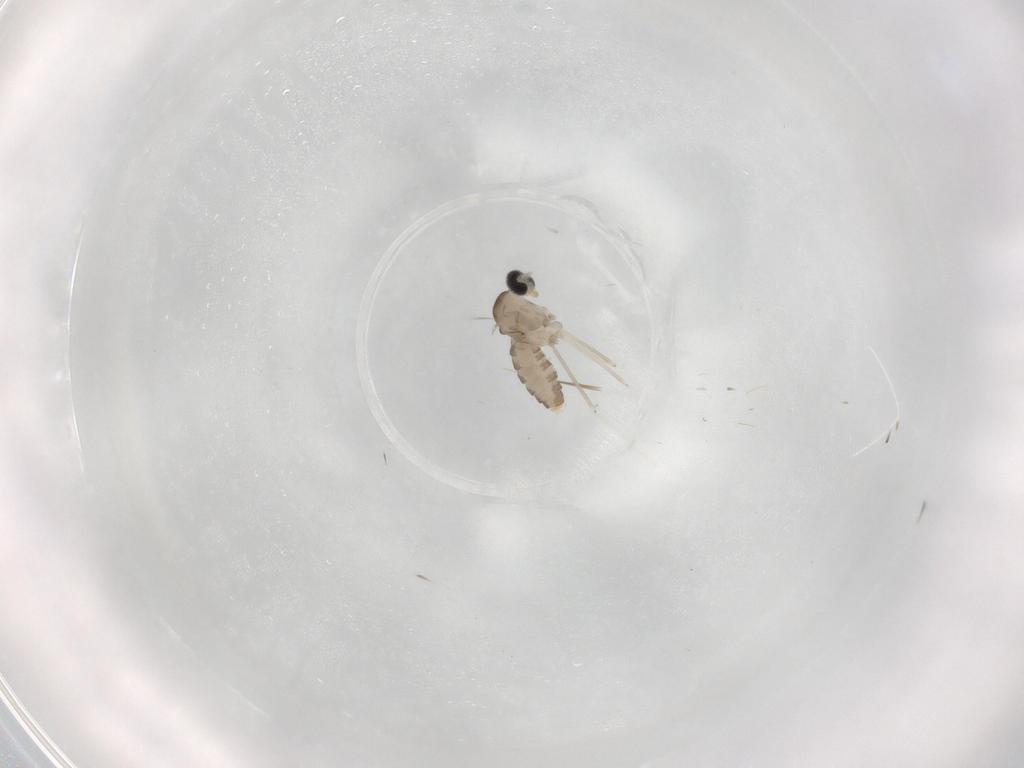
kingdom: Animalia
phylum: Arthropoda
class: Insecta
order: Diptera
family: Cecidomyiidae
